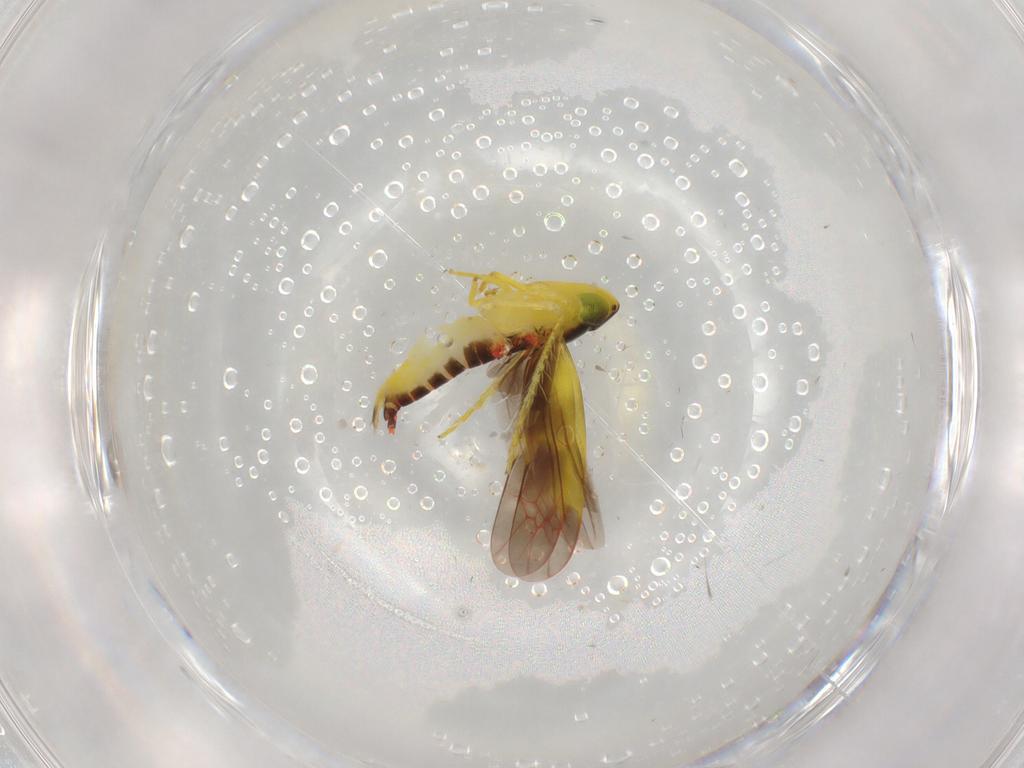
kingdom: Animalia
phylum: Arthropoda
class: Insecta
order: Hemiptera
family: Cicadellidae
